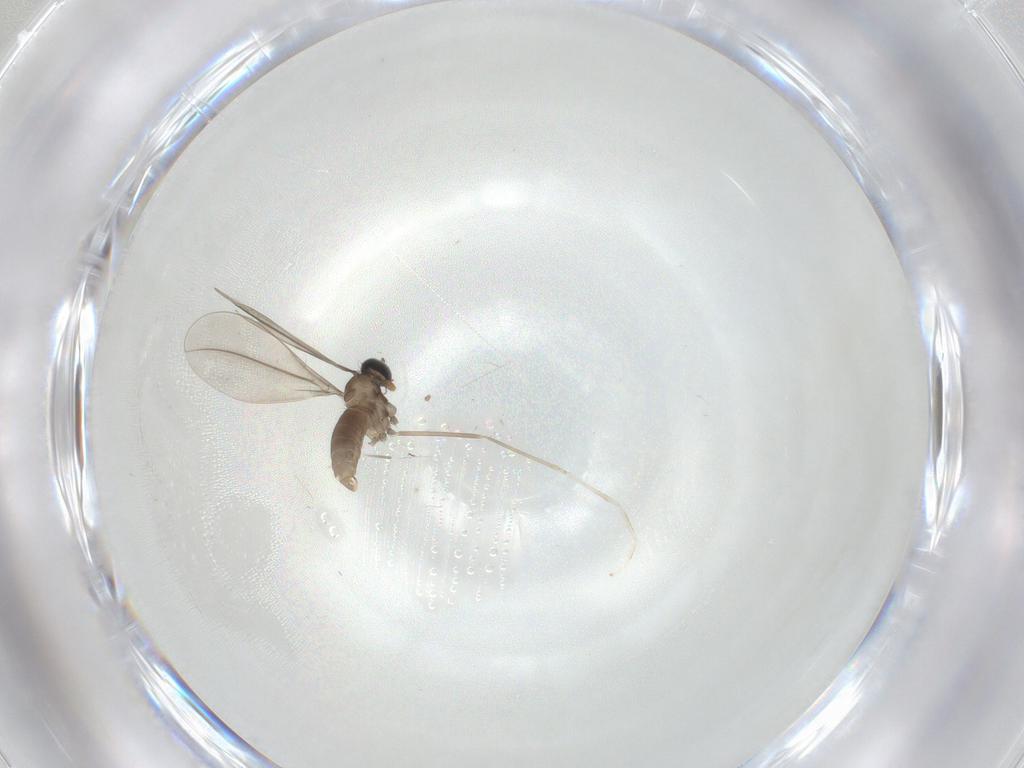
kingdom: Animalia
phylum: Arthropoda
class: Insecta
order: Diptera
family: Cecidomyiidae
